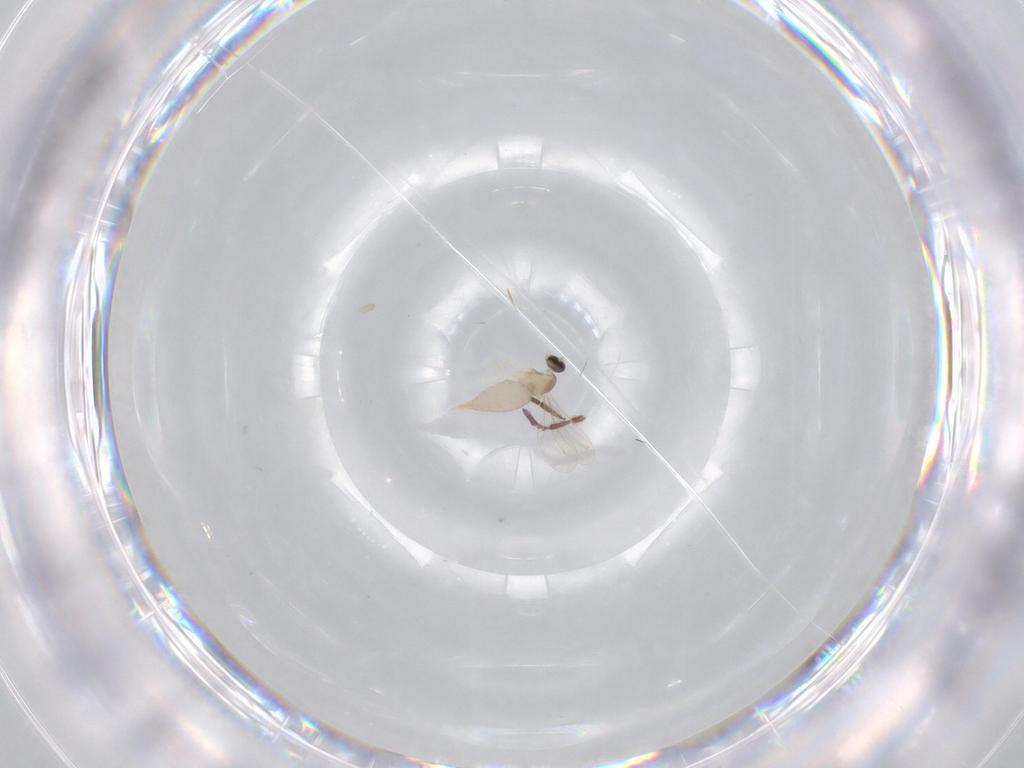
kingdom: Animalia
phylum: Arthropoda
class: Insecta
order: Diptera
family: Cecidomyiidae
